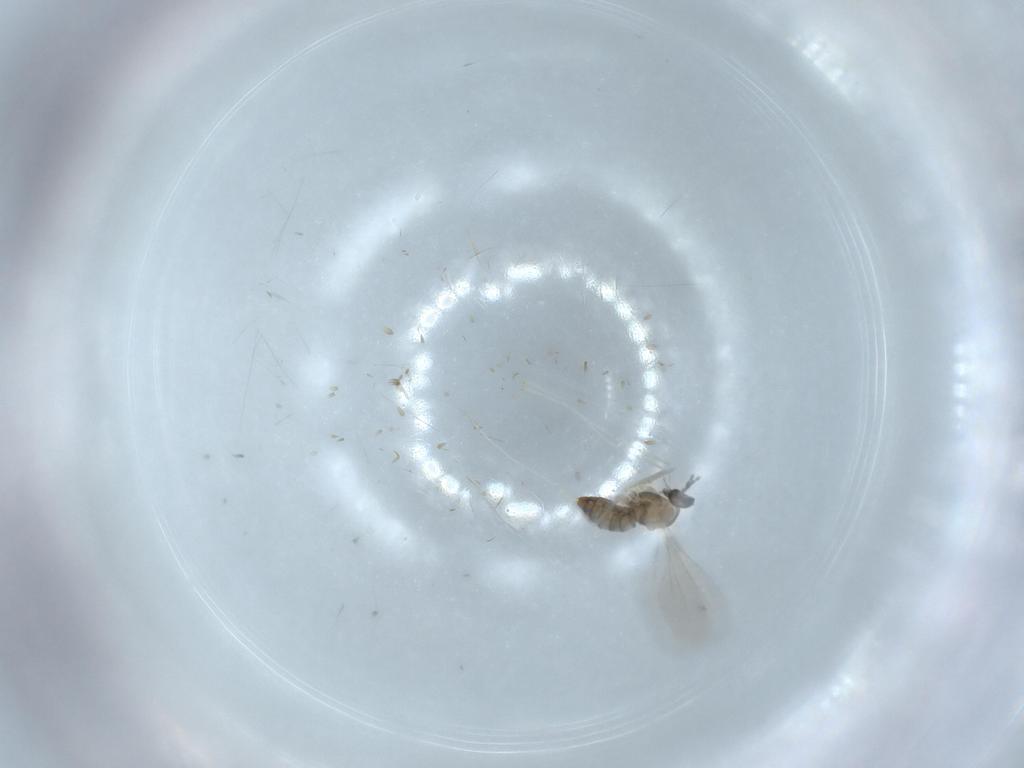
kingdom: Animalia
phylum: Arthropoda
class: Insecta
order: Diptera
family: Cecidomyiidae
